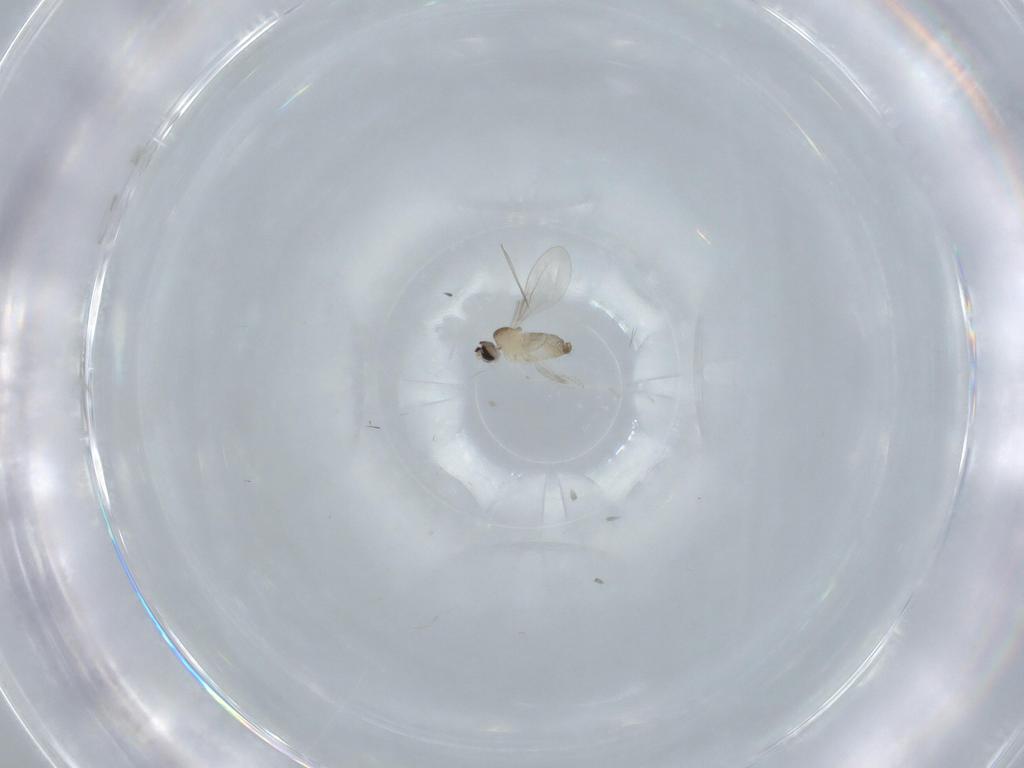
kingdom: Animalia
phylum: Arthropoda
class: Insecta
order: Diptera
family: Cecidomyiidae
